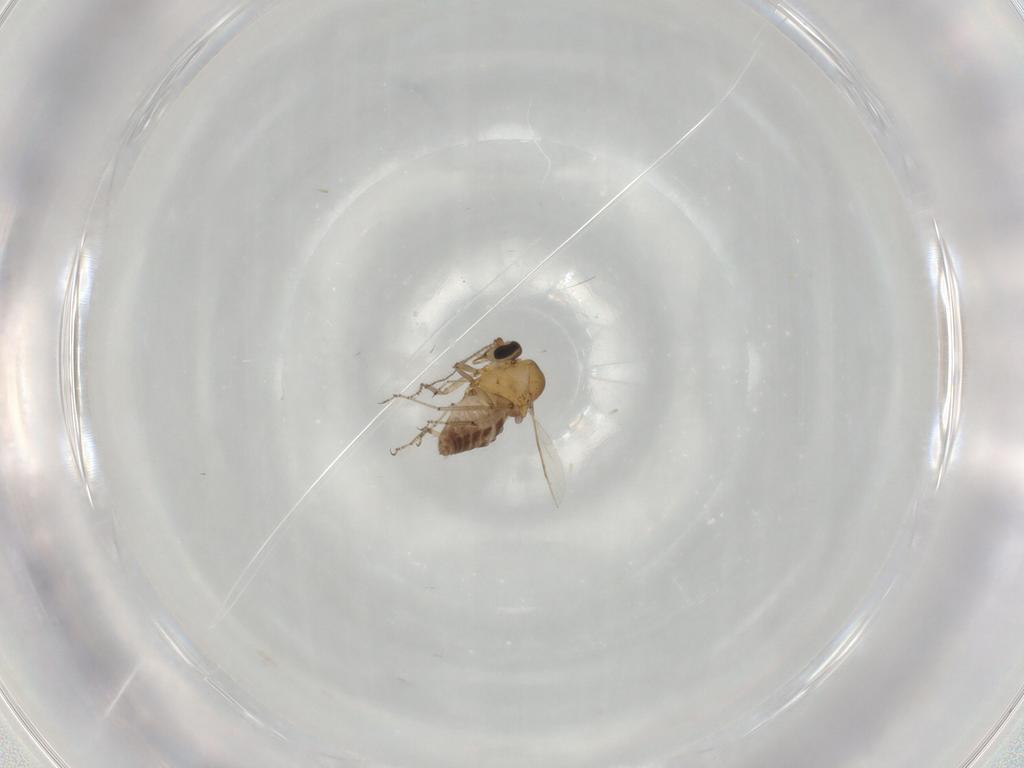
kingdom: Animalia
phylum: Arthropoda
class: Insecta
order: Diptera
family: Ceratopogonidae
